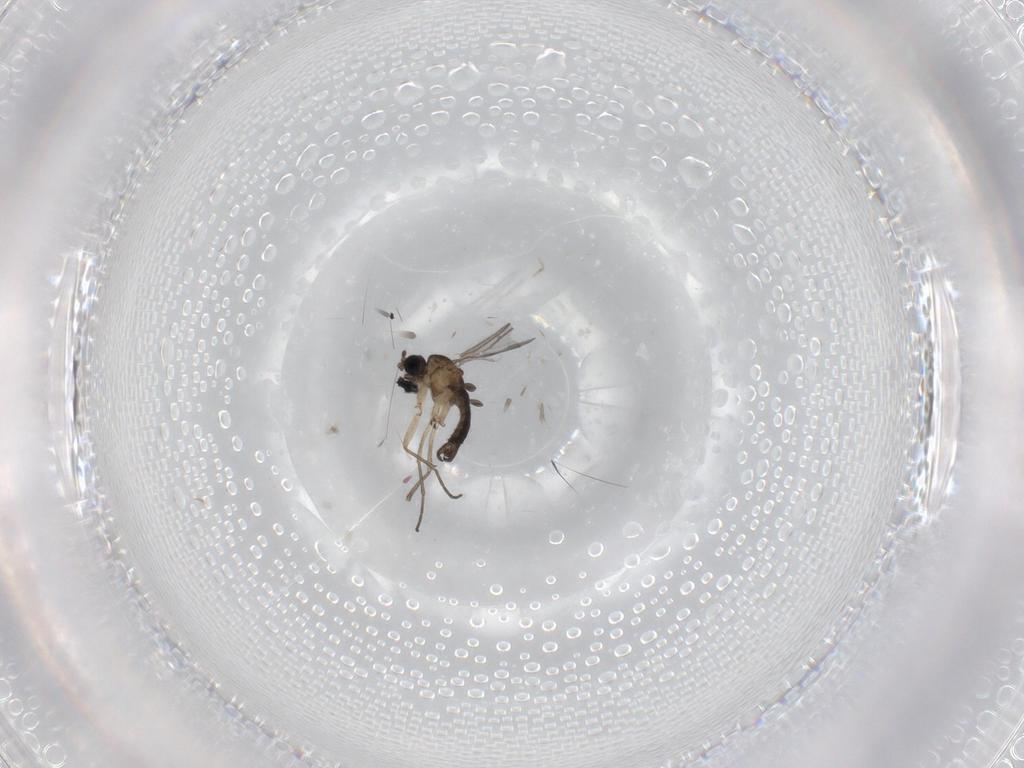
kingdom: Animalia
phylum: Arthropoda
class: Insecta
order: Diptera
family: Sciaridae
